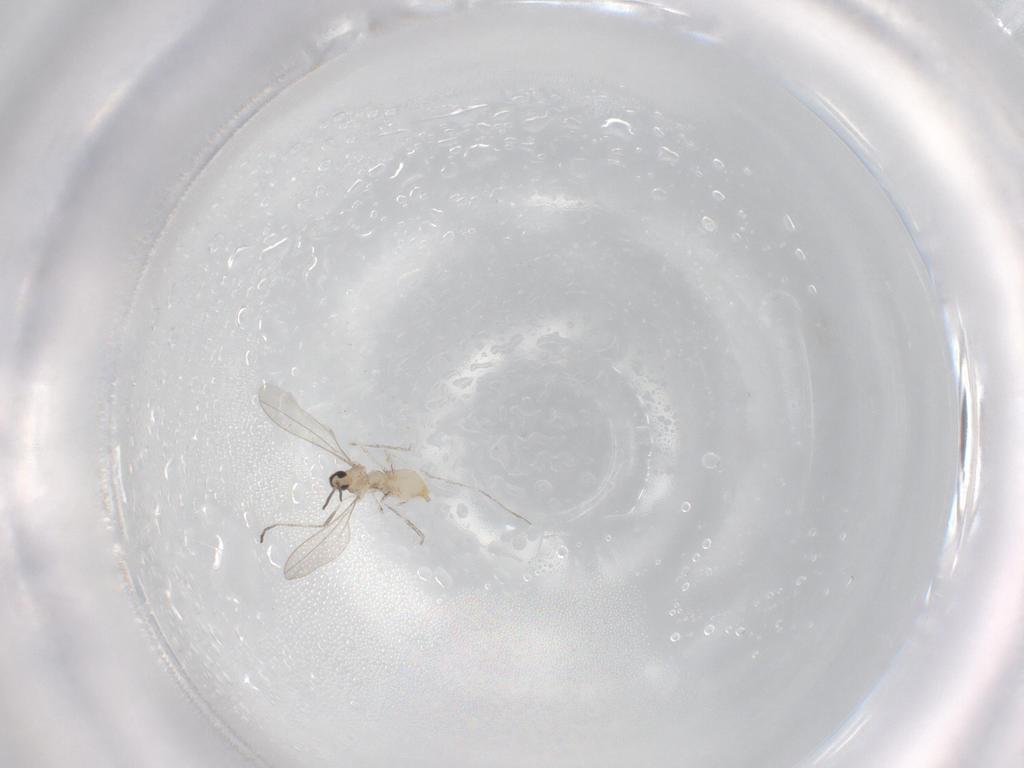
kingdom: Animalia
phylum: Arthropoda
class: Insecta
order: Diptera
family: Cecidomyiidae
